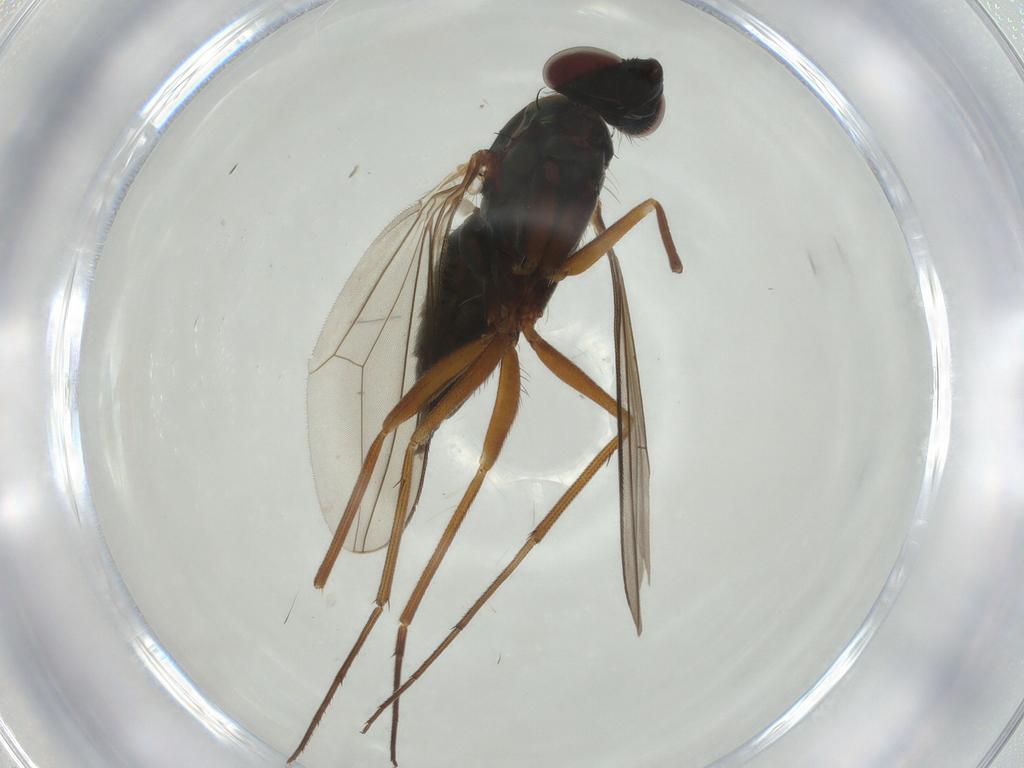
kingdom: Animalia
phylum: Arthropoda
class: Insecta
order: Diptera
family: Dolichopodidae
